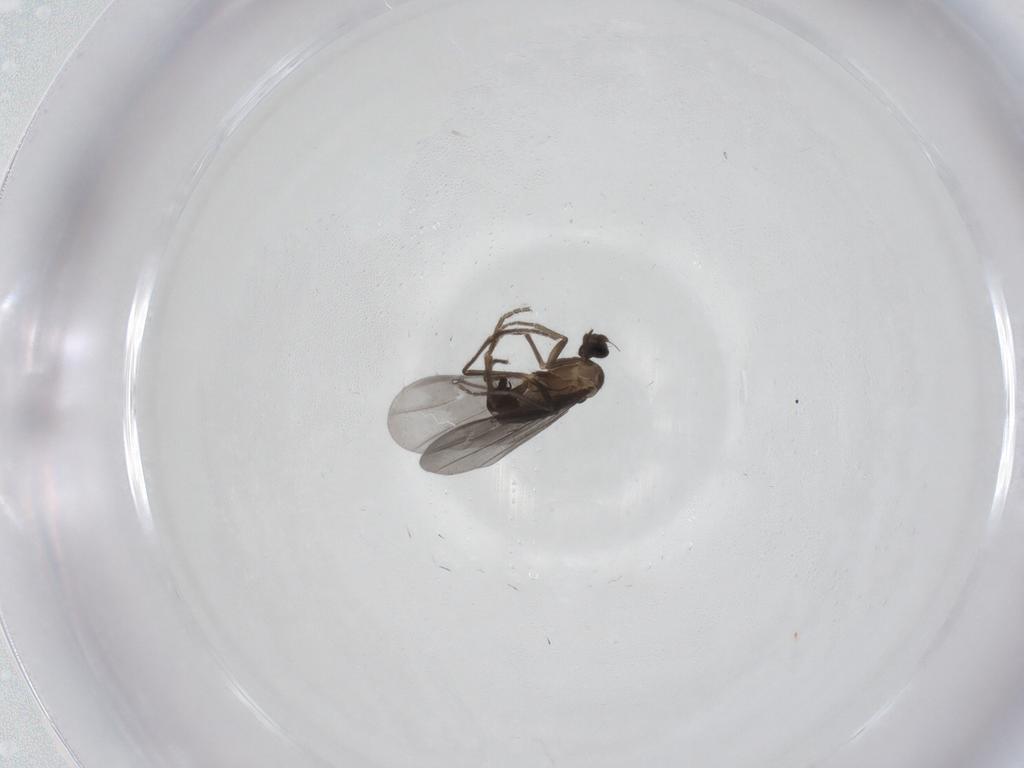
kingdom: Animalia
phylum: Arthropoda
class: Insecta
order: Diptera
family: Phoridae
